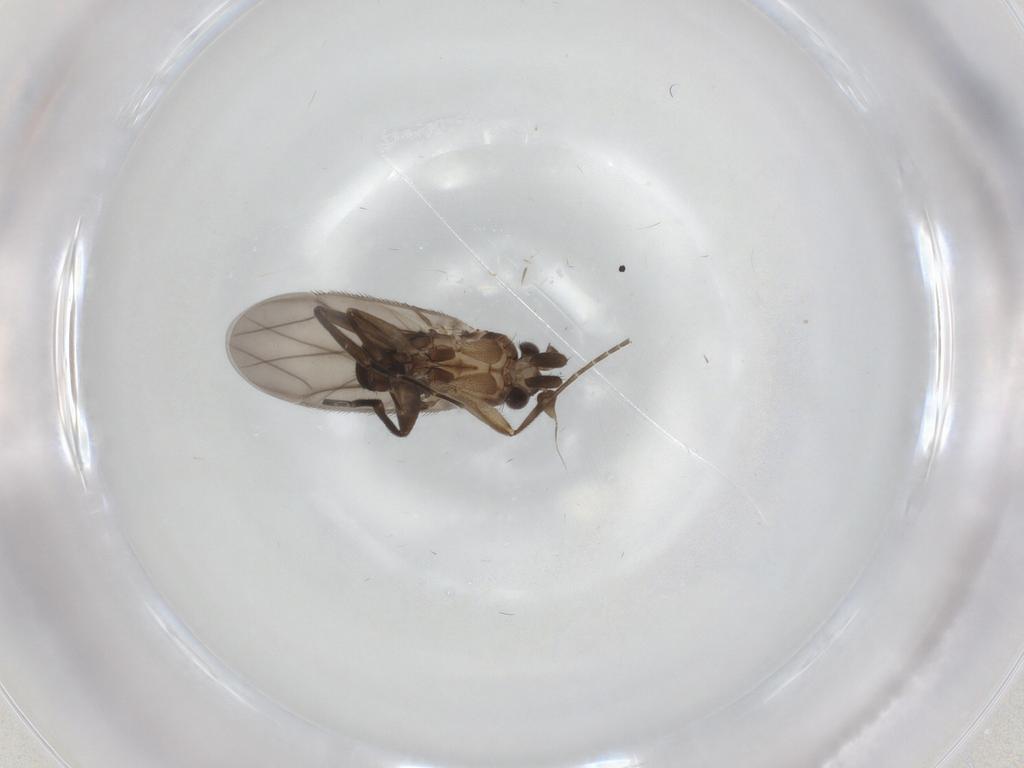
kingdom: Animalia
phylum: Arthropoda
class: Insecta
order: Diptera
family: Phoridae
